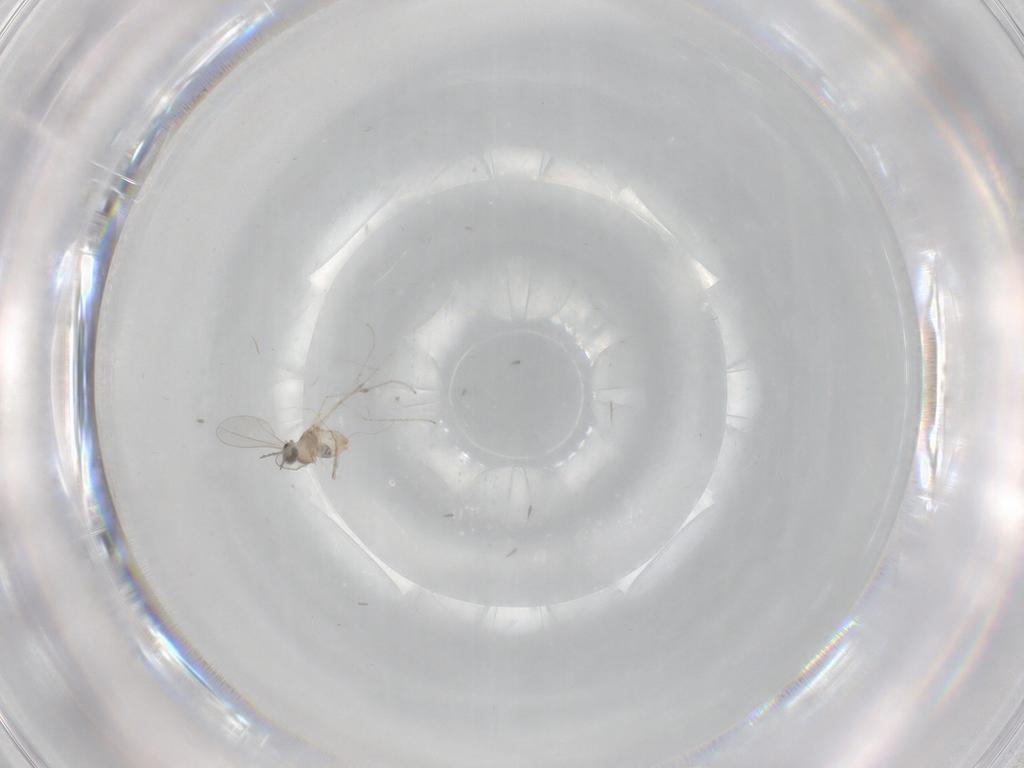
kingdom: Animalia
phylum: Arthropoda
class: Insecta
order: Diptera
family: Cecidomyiidae
